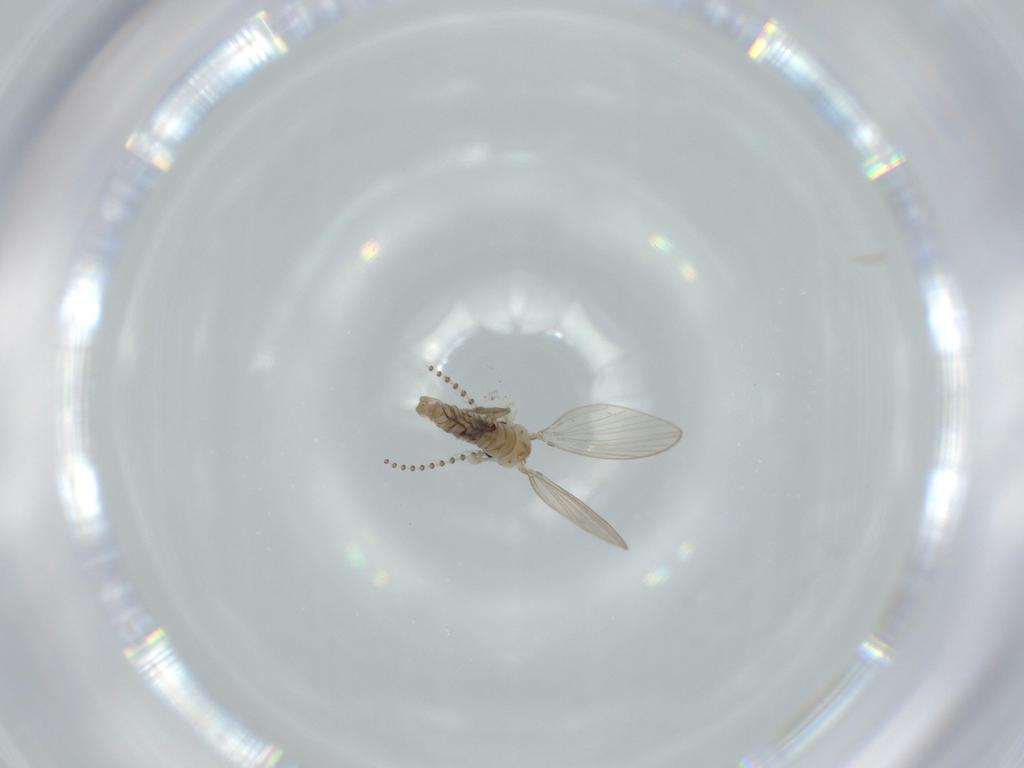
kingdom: Animalia
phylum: Arthropoda
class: Insecta
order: Diptera
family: Psychodidae
